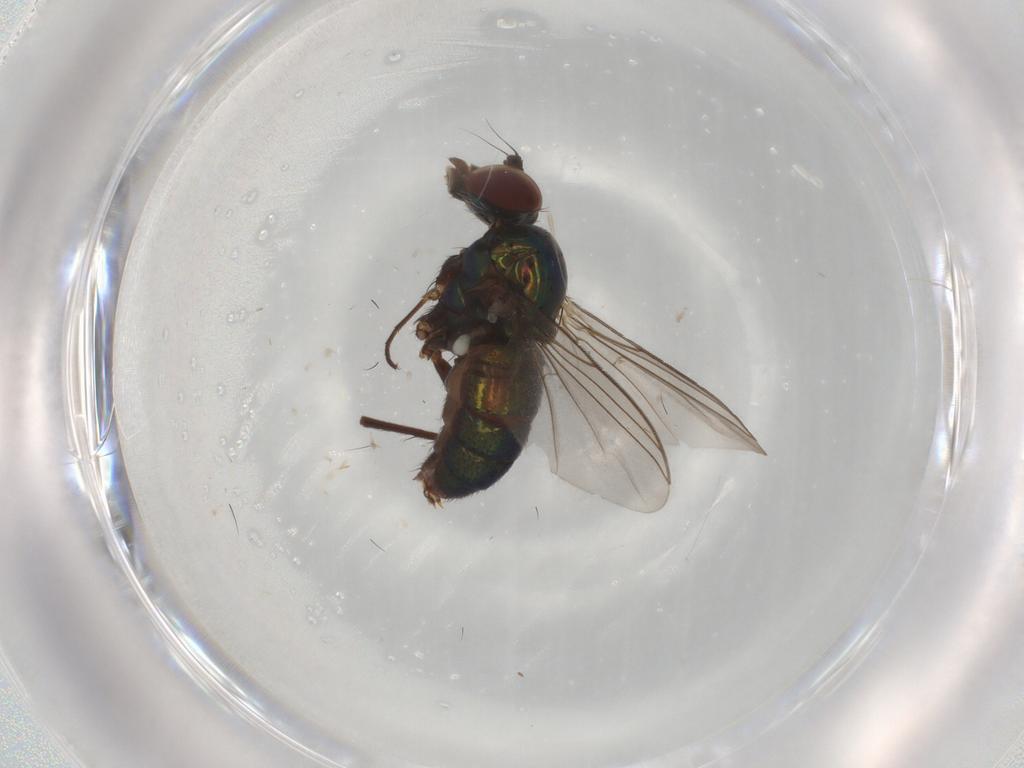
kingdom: Animalia
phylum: Arthropoda
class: Insecta
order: Diptera
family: Dolichopodidae
